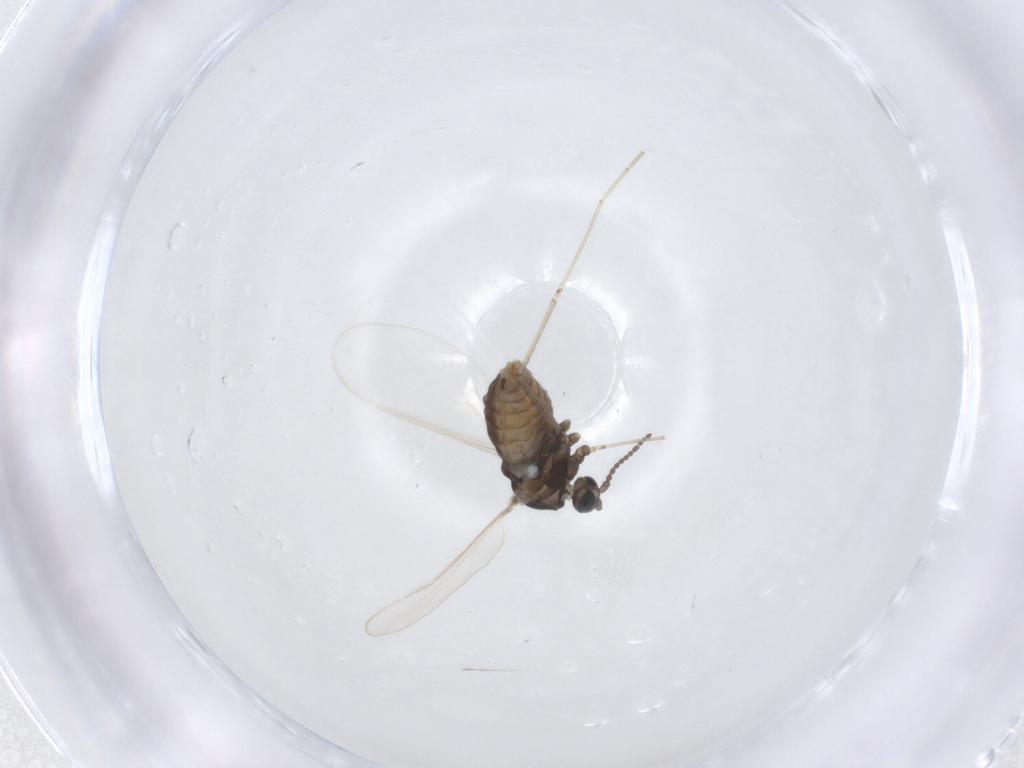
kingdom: Animalia
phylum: Arthropoda
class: Insecta
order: Diptera
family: Cecidomyiidae
